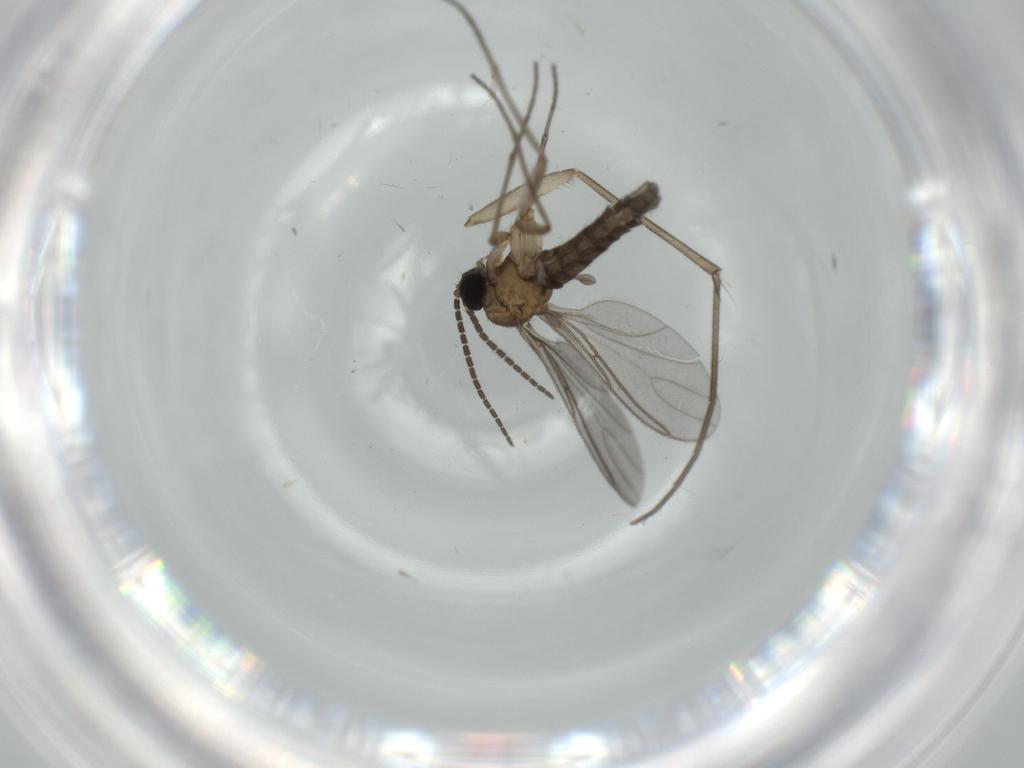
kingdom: Animalia
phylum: Arthropoda
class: Insecta
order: Diptera
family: Mycetophilidae
